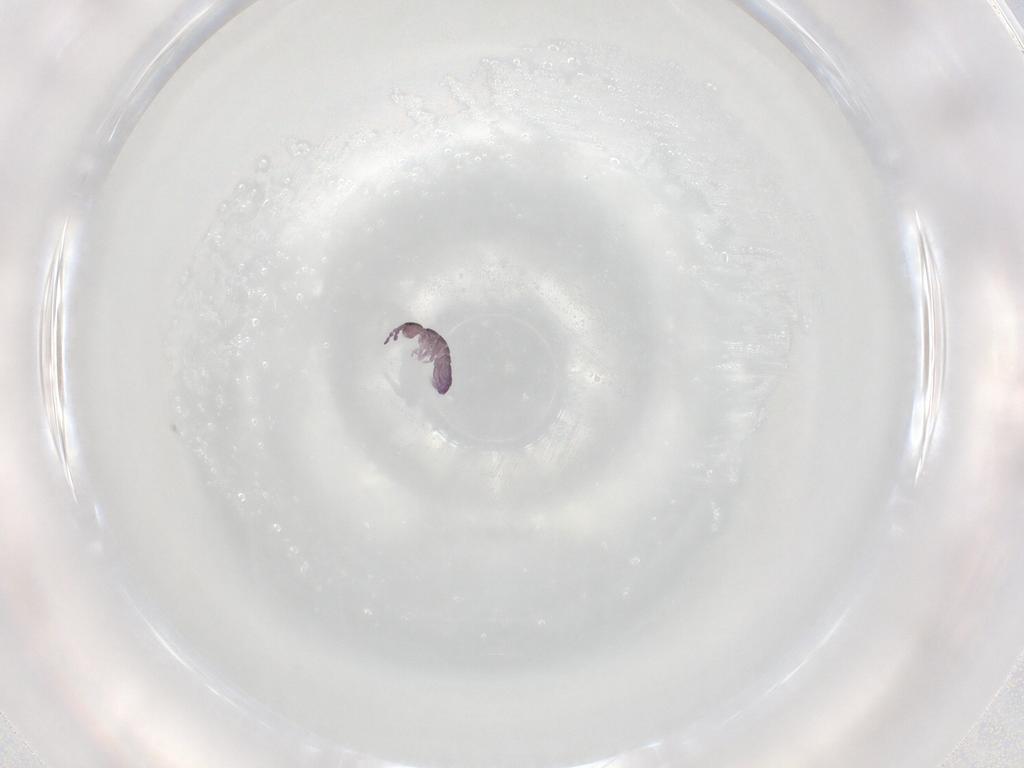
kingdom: Animalia
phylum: Arthropoda
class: Collembola
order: Entomobryomorpha
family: Isotomidae
